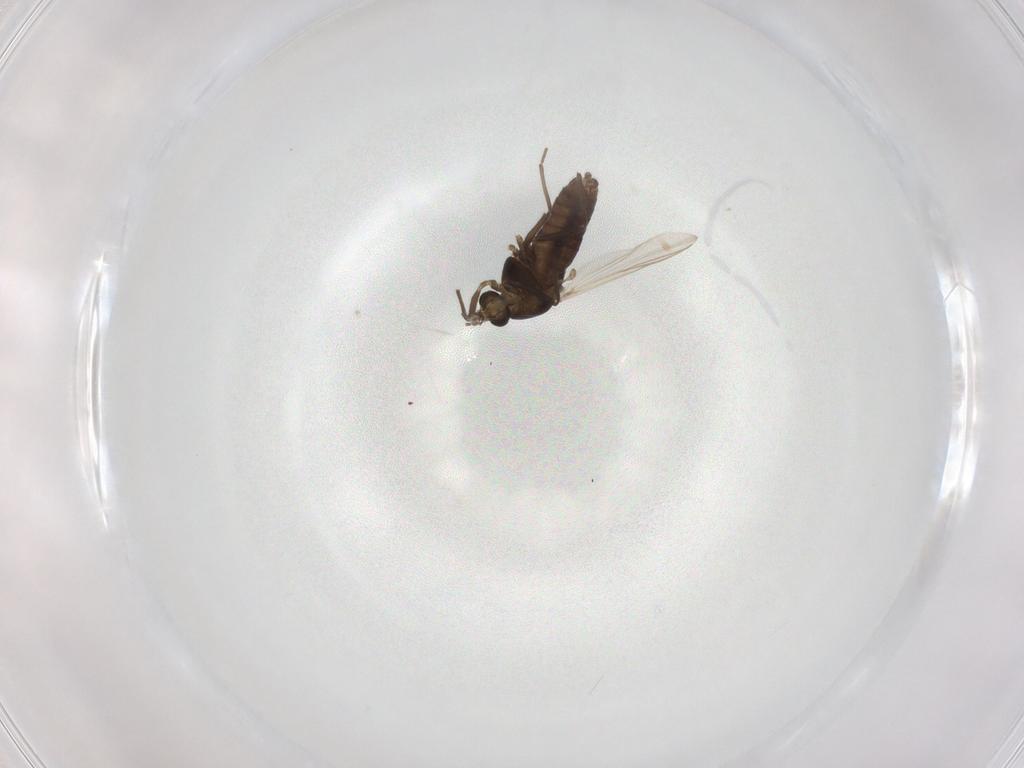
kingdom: Animalia
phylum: Arthropoda
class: Insecta
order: Diptera
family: Chironomidae
